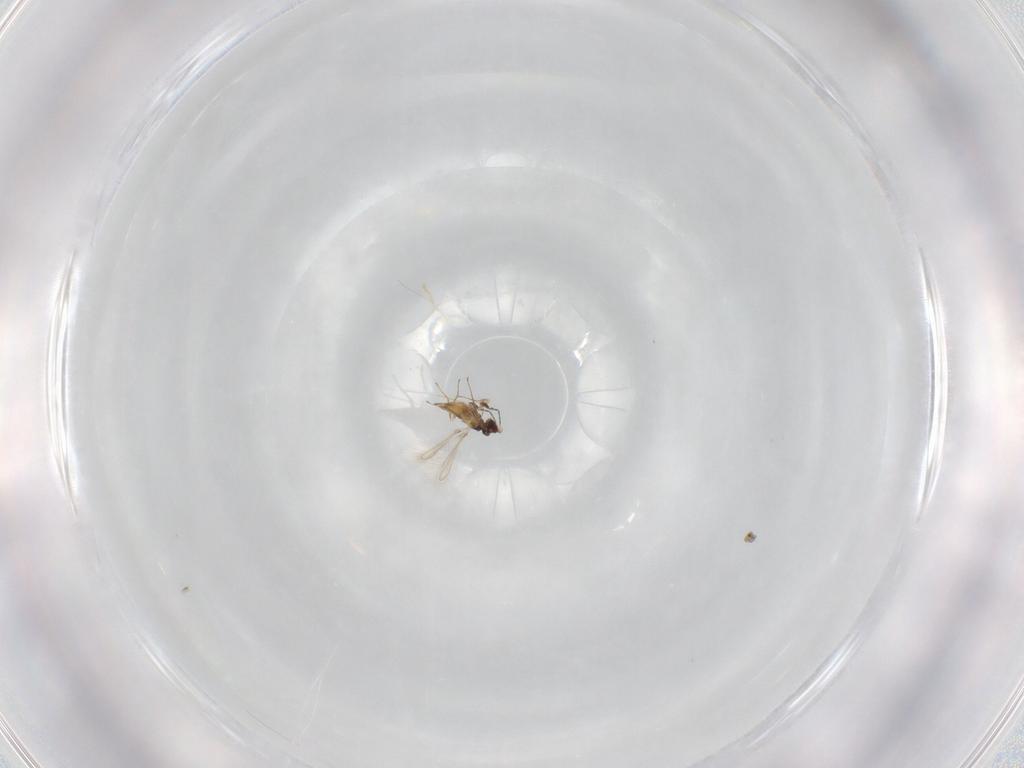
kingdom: Animalia
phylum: Arthropoda
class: Insecta
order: Hymenoptera
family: Mymaridae
